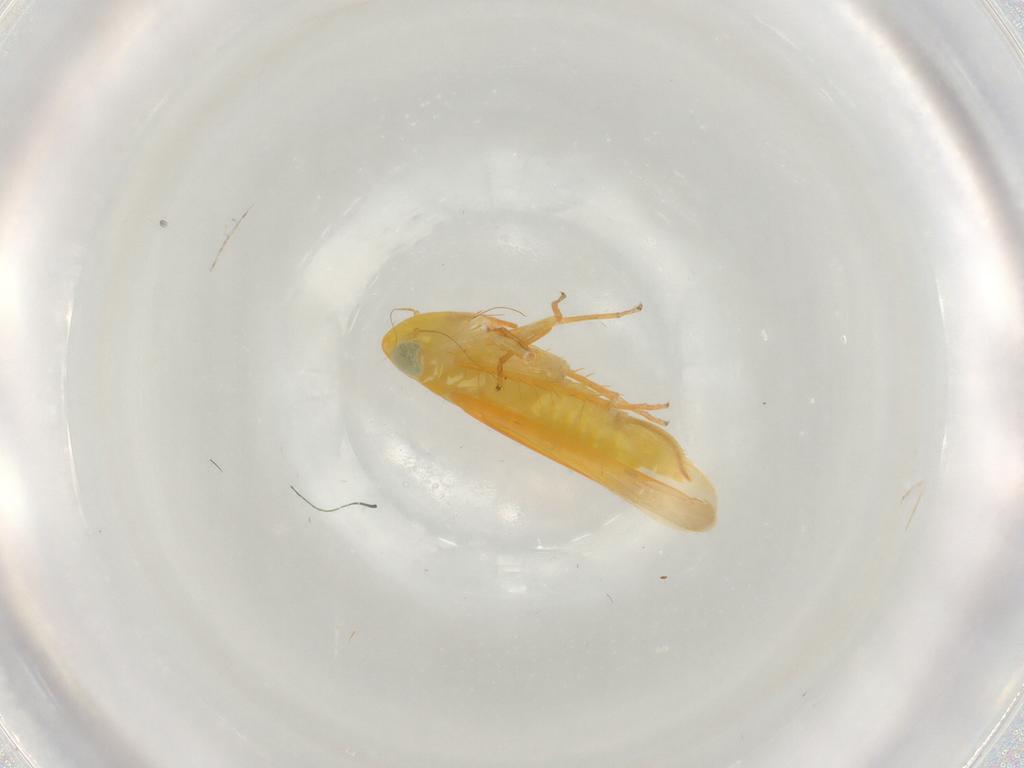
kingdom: Animalia
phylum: Arthropoda
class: Insecta
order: Hemiptera
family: Cicadellidae
